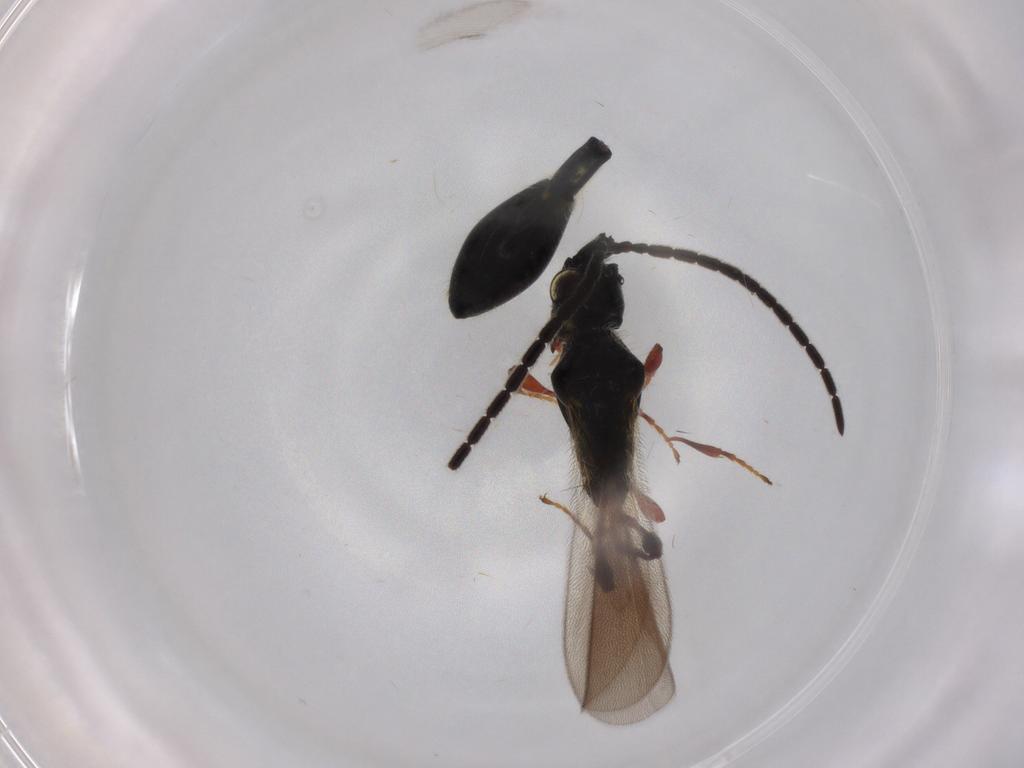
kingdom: Animalia
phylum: Arthropoda
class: Insecta
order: Hymenoptera
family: Diapriidae
